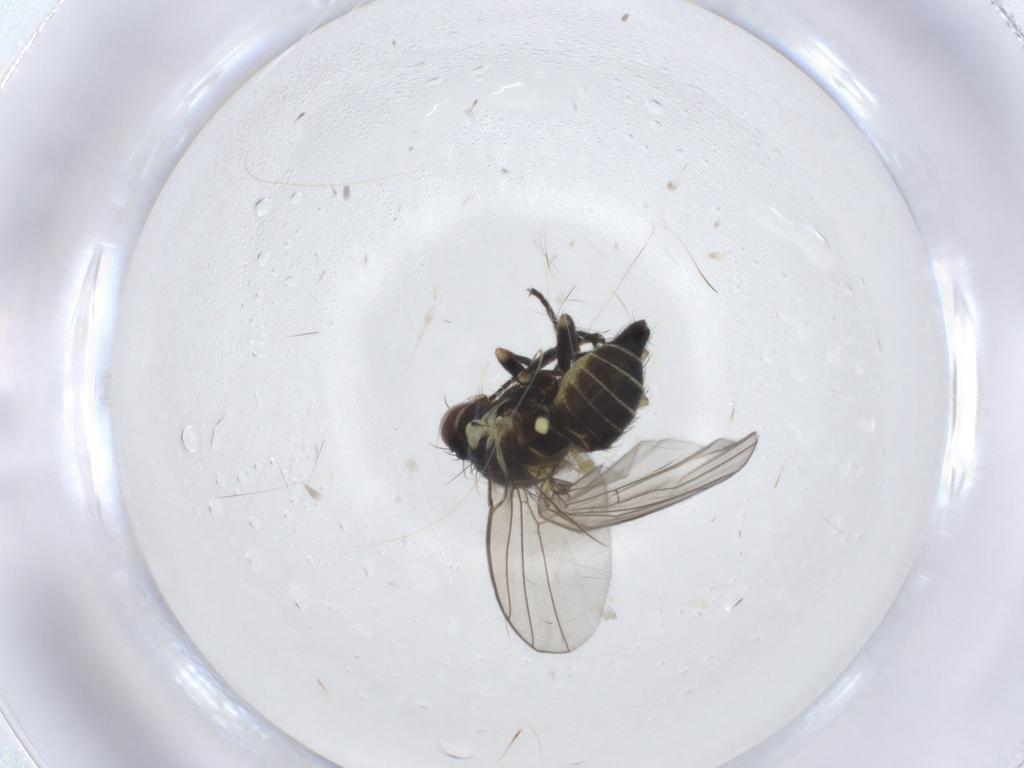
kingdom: Animalia
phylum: Arthropoda
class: Insecta
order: Diptera
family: Agromyzidae
